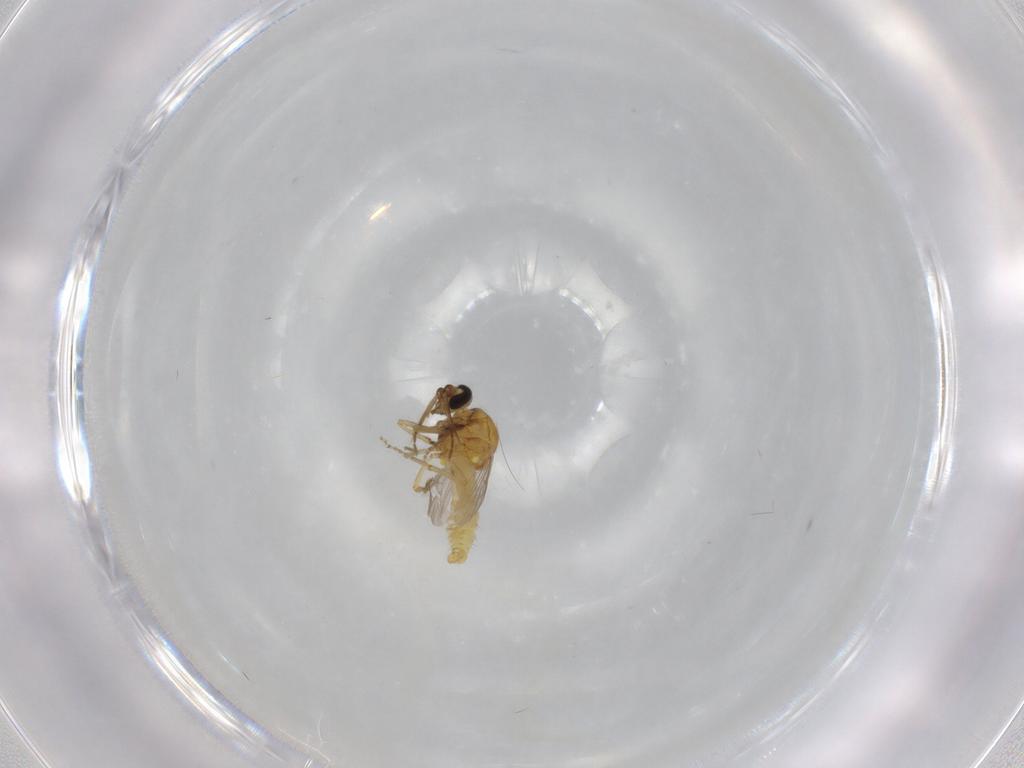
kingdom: Animalia
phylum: Arthropoda
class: Insecta
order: Diptera
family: Ceratopogonidae
